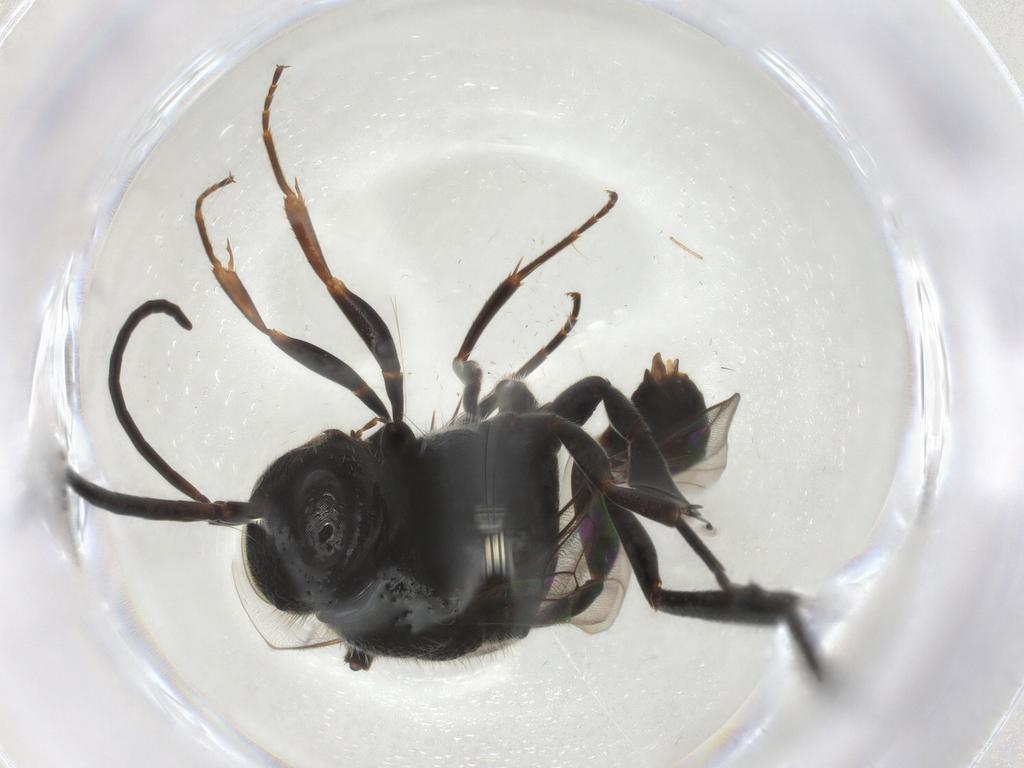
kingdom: Animalia
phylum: Arthropoda
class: Insecta
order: Hymenoptera
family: Evaniidae
